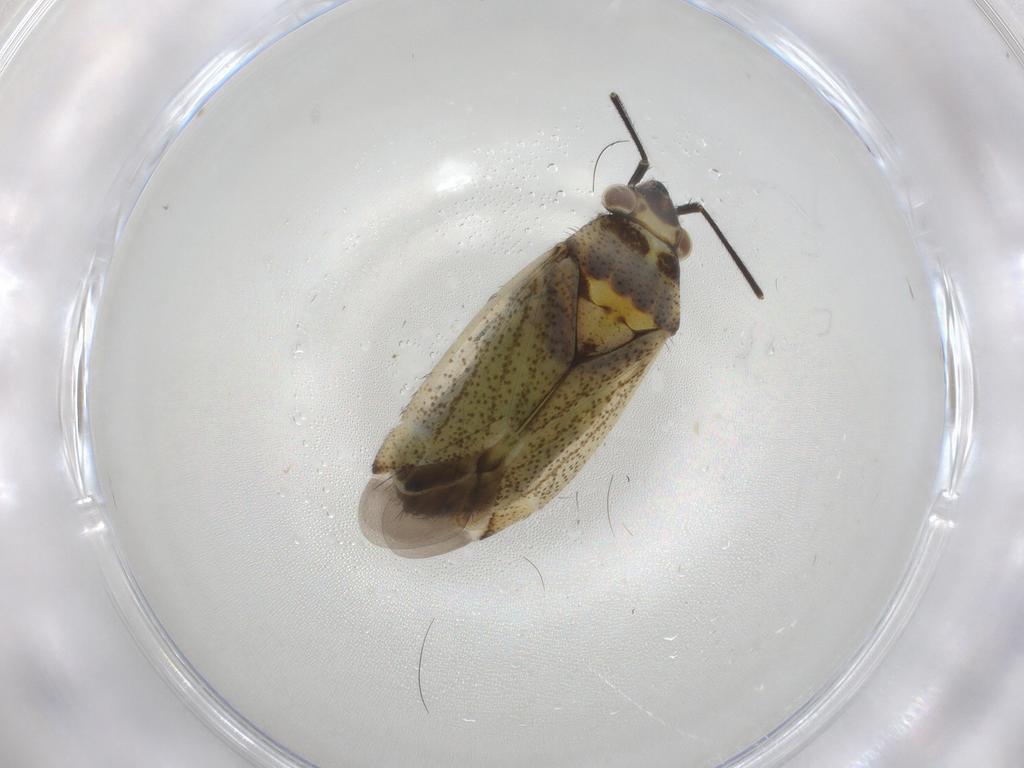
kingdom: Animalia
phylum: Arthropoda
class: Insecta
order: Hemiptera
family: Miridae
